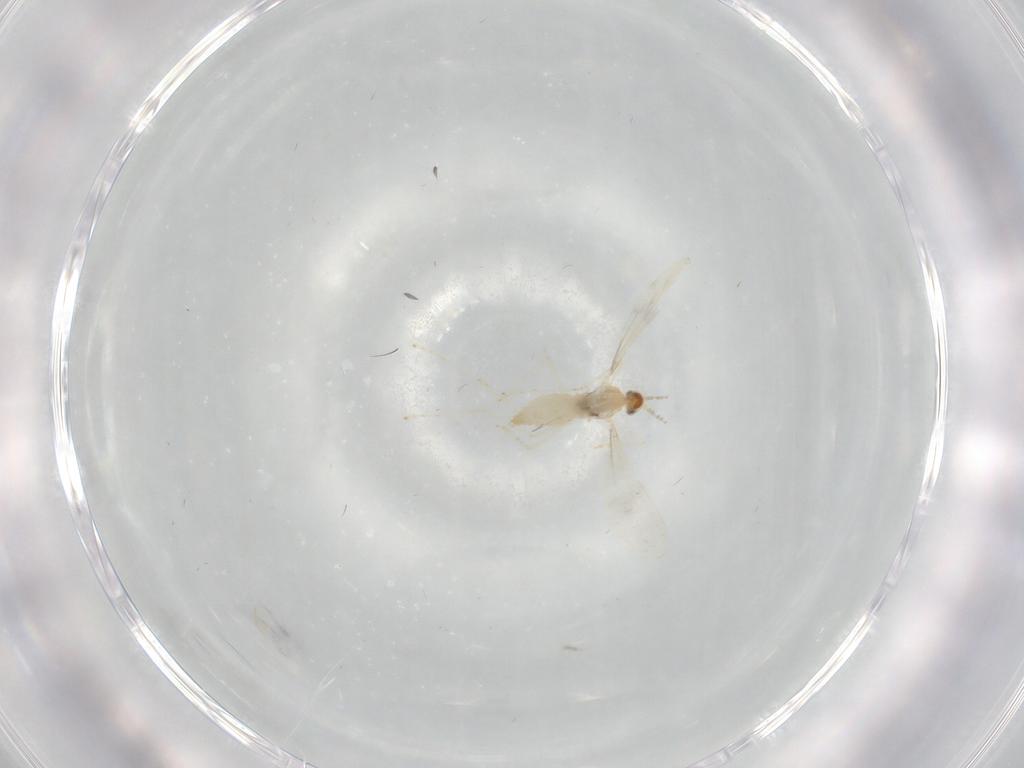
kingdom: Animalia
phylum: Arthropoda
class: Insecta
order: Diptera
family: Cecidomyiidae
